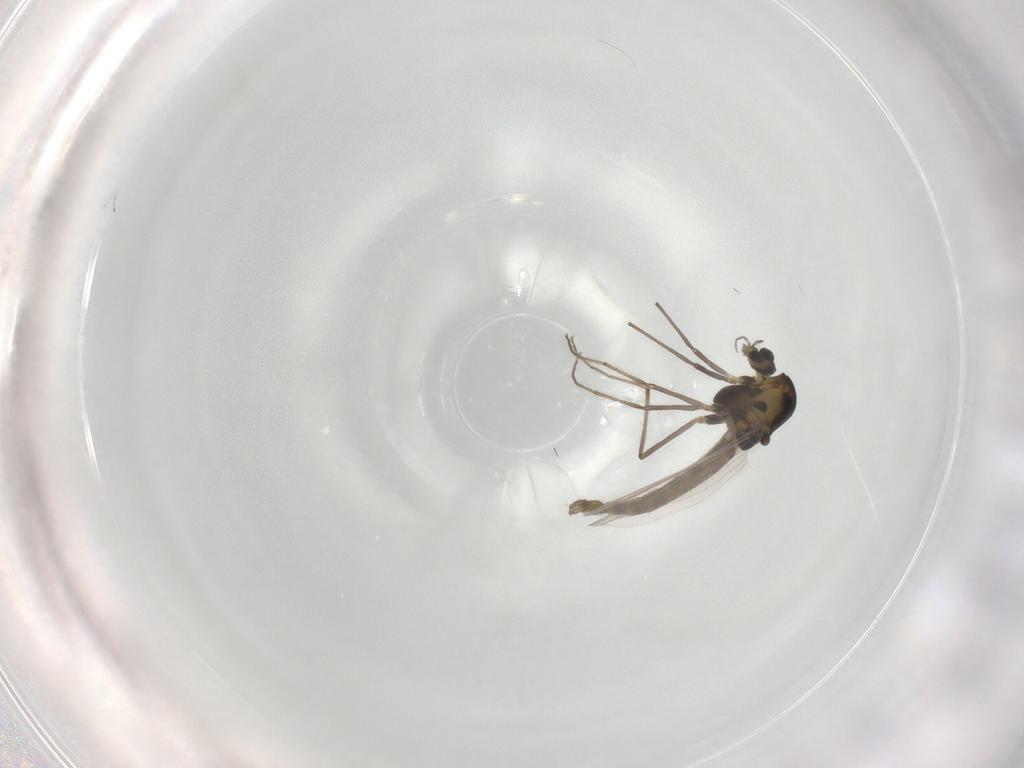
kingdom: Animalia
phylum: Arthropoda
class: Insecta
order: Diptera
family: Chironomidae
